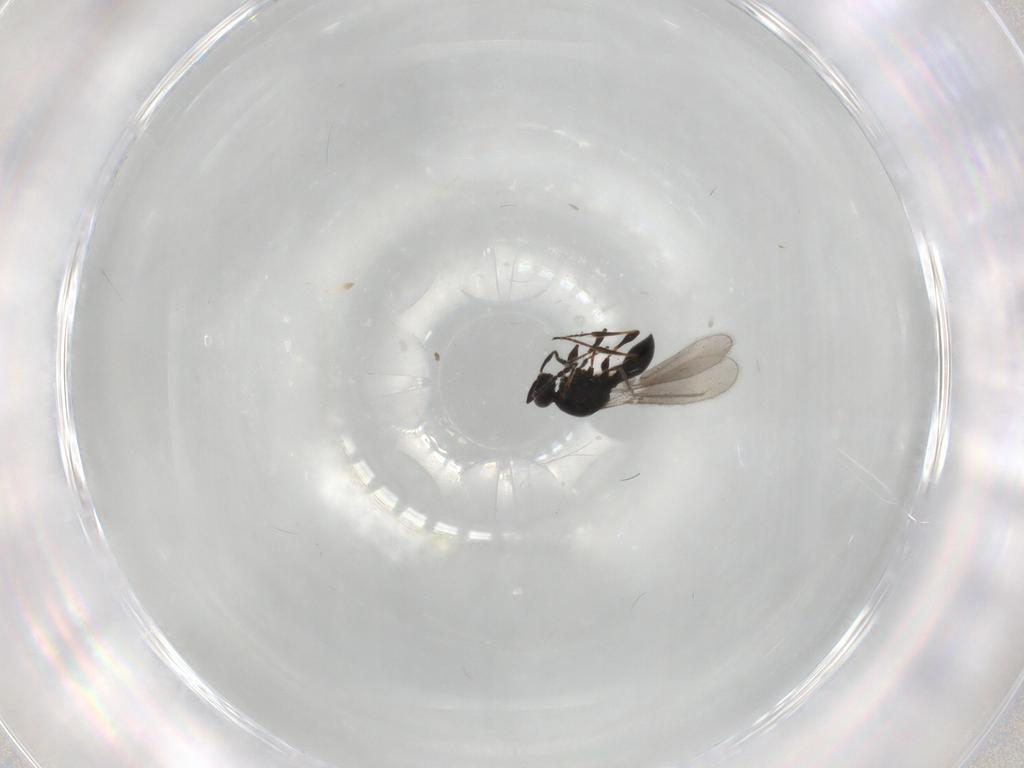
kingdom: Animalia
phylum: Arthropoda
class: Insecta
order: Hymenoptera
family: Platygastridae
